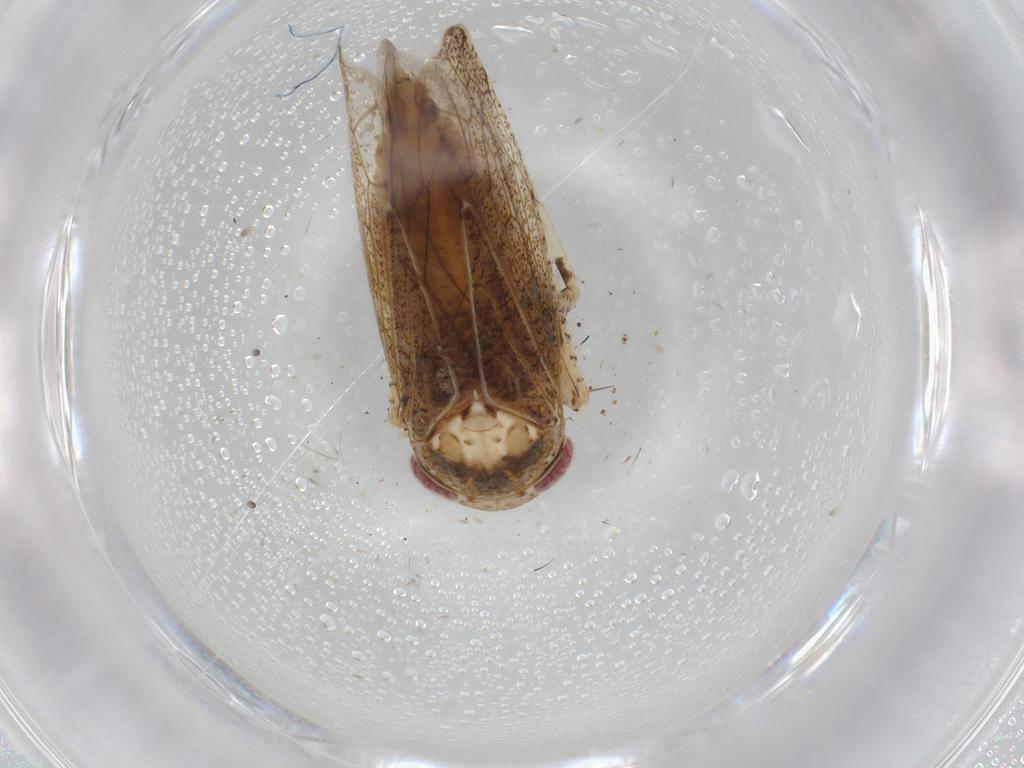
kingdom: Animalia
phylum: Arthropoda
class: Insecta
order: Hemiptera
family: Cicadellidae
